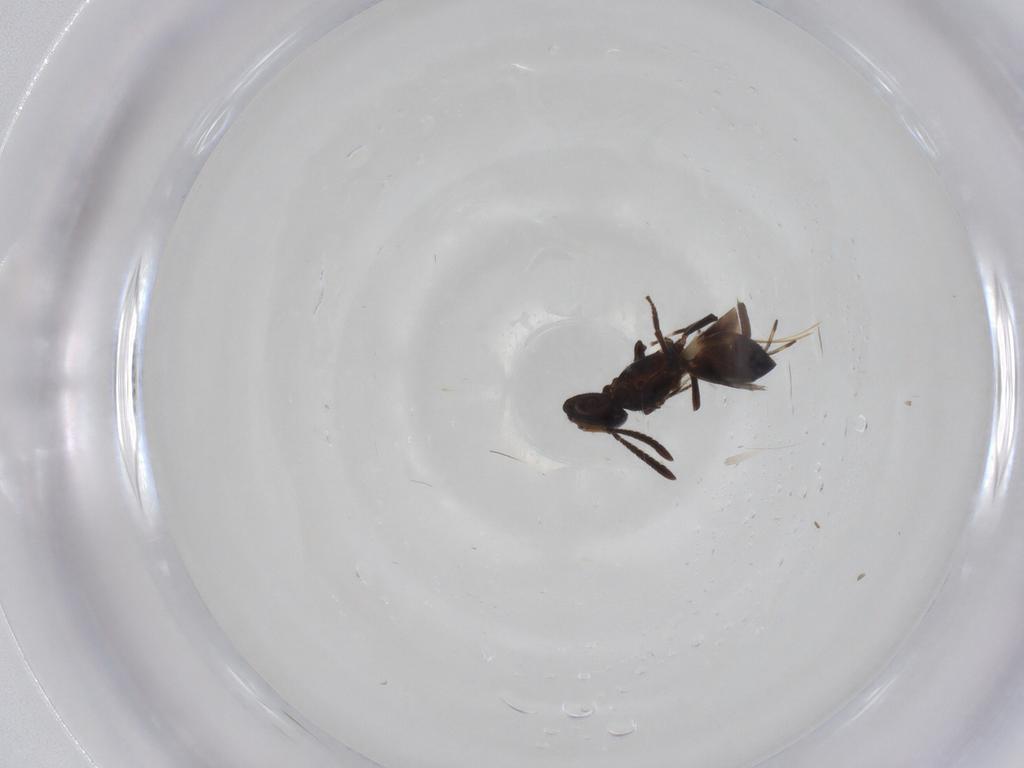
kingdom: Animalia
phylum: Arthropoda
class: Insecta
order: Hymenoptera
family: Eupelmidae
